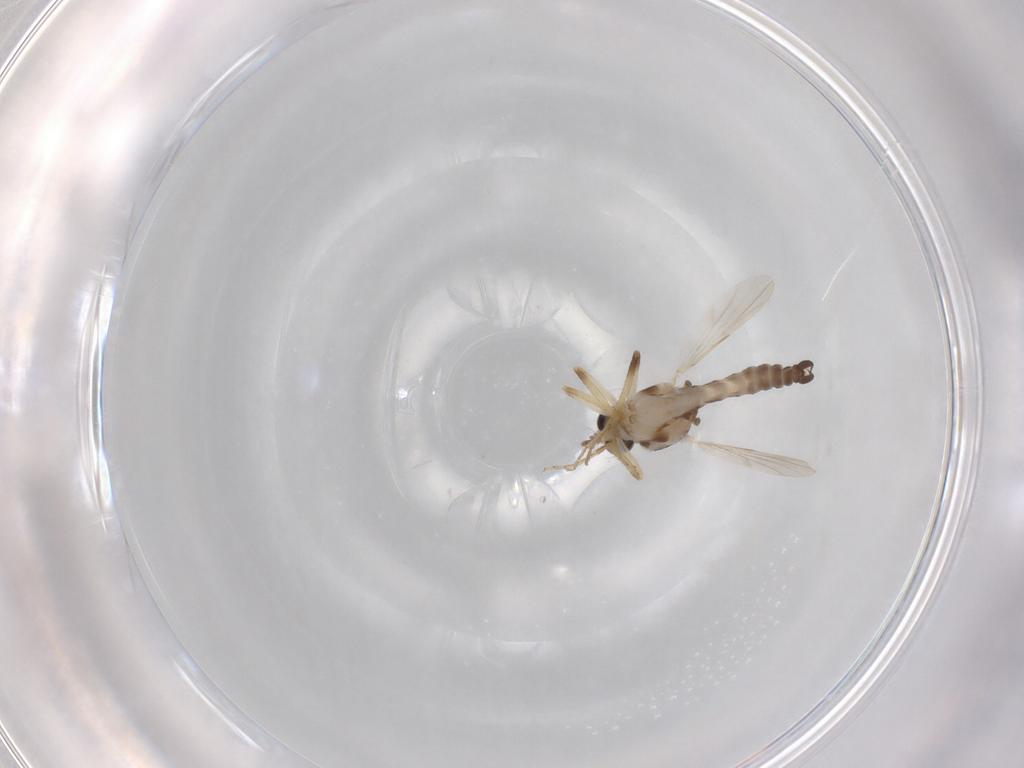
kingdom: Animalia
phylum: Arthropoda
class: Insecta
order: Diptera
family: Ceratopogonidae
